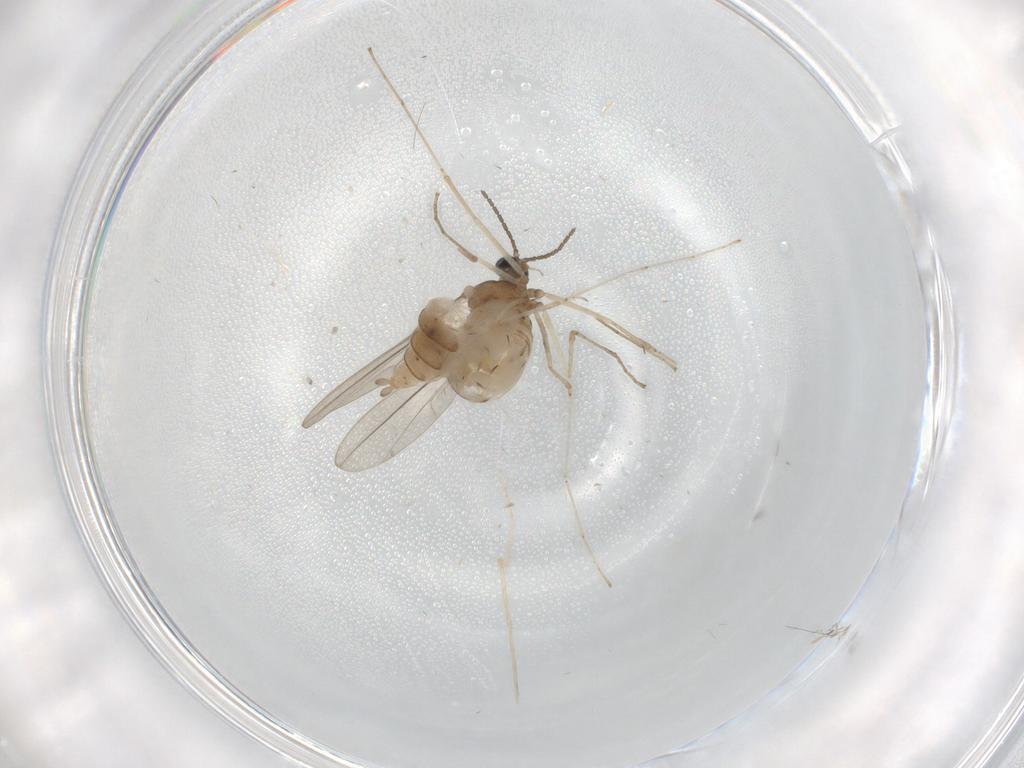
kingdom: Animalia
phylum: Arthropoda
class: Insecta
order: Diptera
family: Cecidomyiidae
